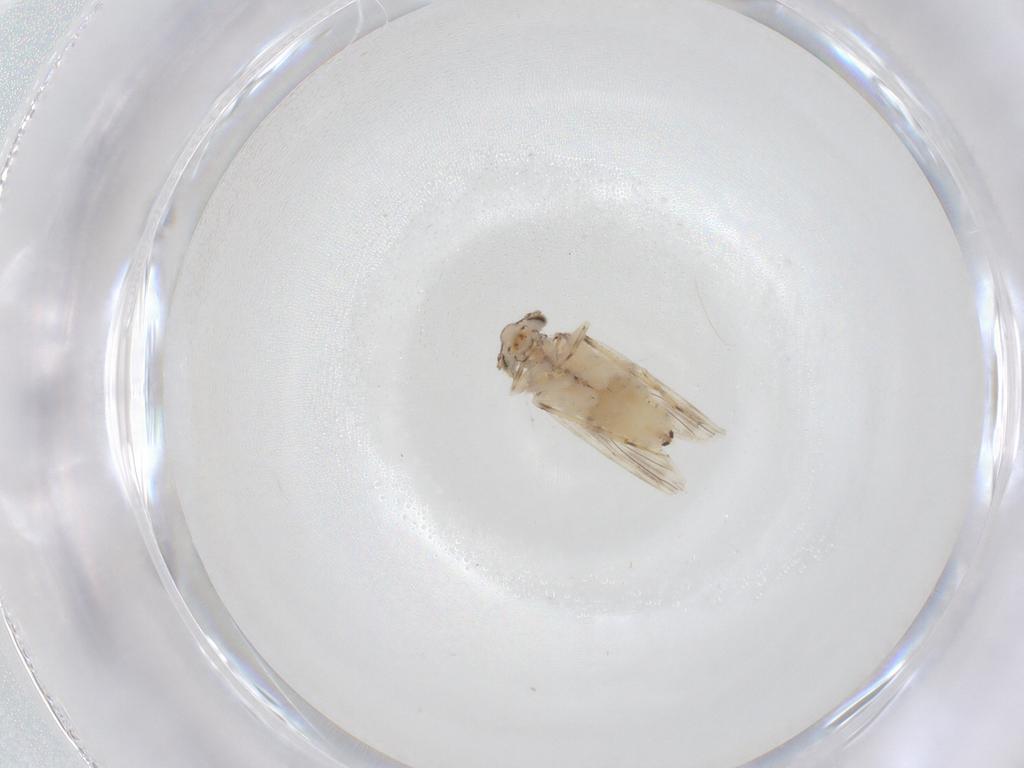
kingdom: Animalia
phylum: Arthropoda
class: Insecta
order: Psocodea
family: Lepidopsocidae
